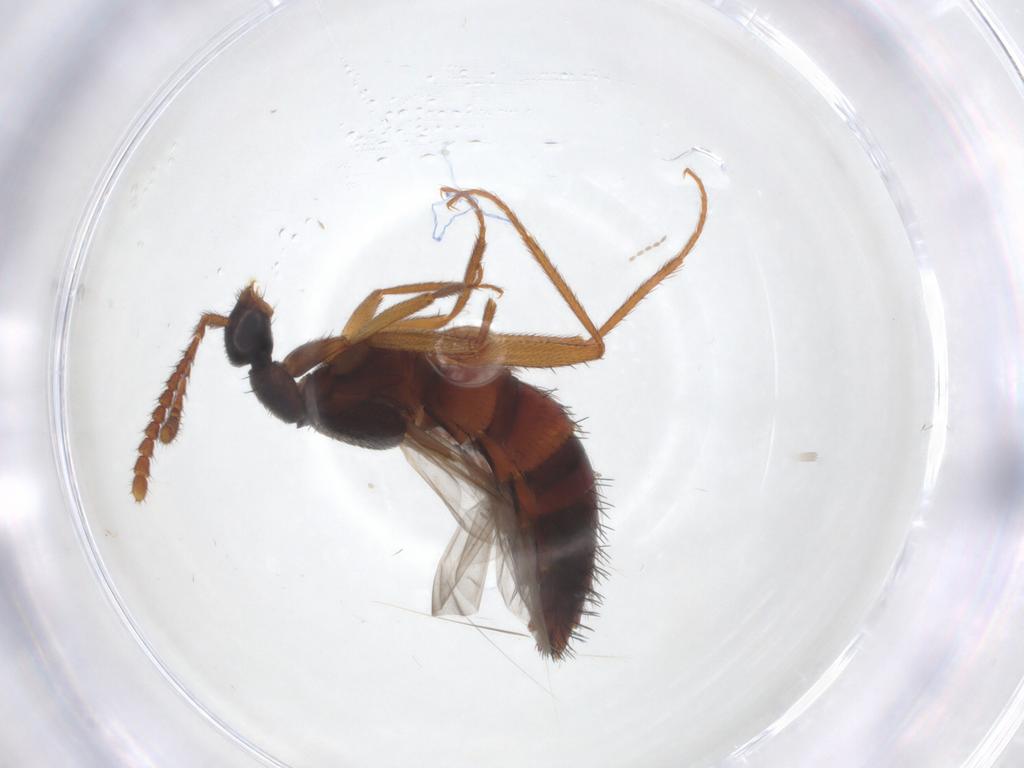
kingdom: Animalia
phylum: Arthropoda
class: Insecta
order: Coleoptera
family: Staphylinidae
